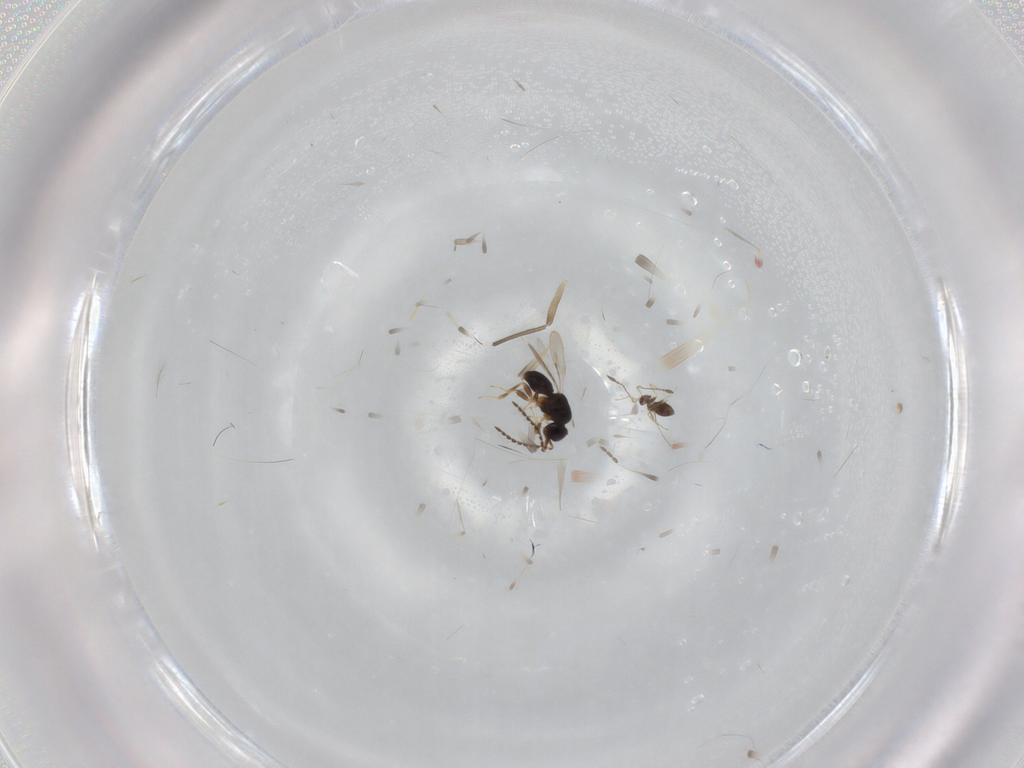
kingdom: Animalia
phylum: Arthropoda
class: Insecta
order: Hymenoptera
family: Mymaridae
